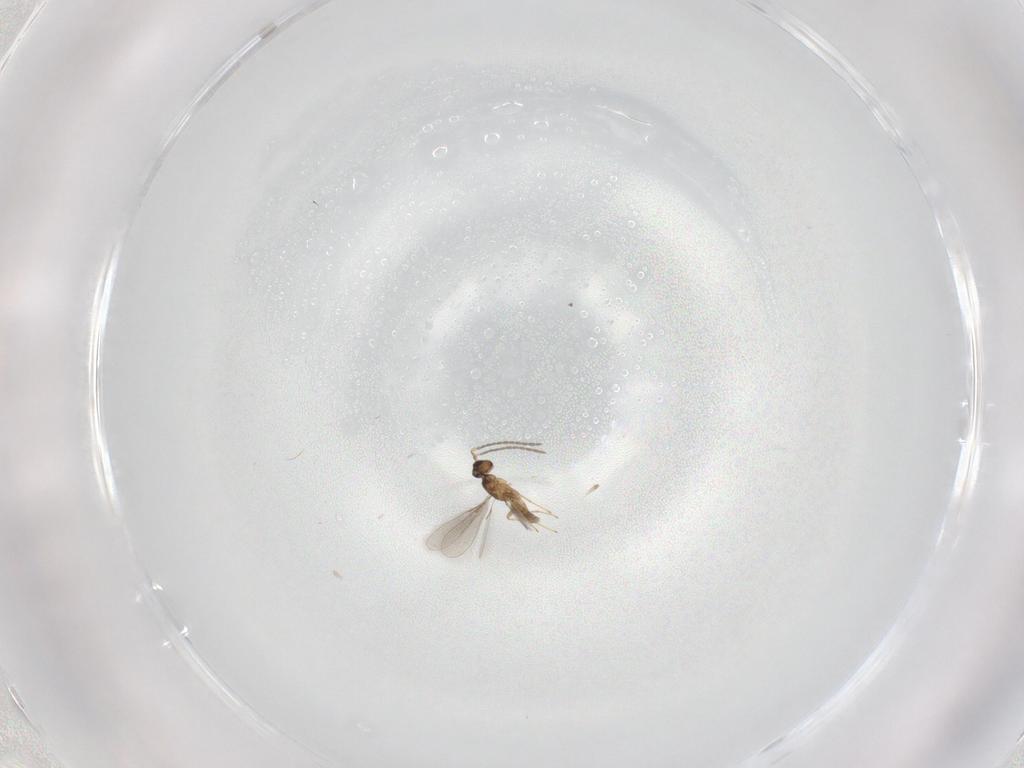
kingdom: Animalia
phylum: Arthropoda
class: Insecta
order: Hymenoptera
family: Mymaridae
